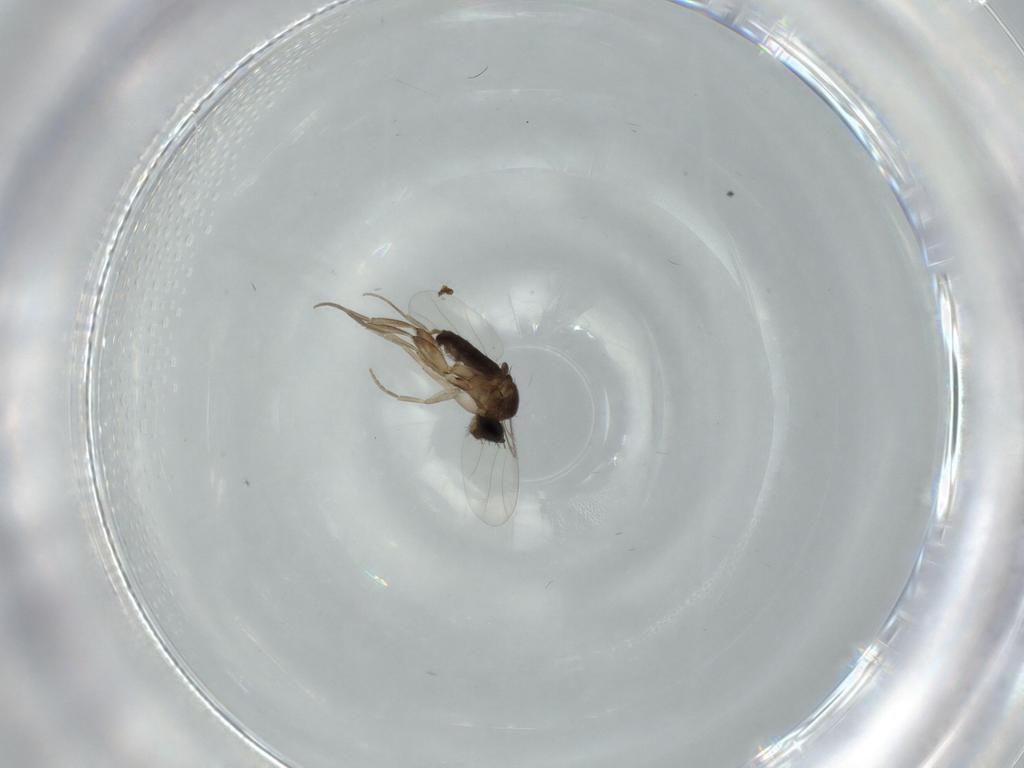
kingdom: Animalia
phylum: Arthropoda
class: Insecta
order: Diptera
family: Phoridae
